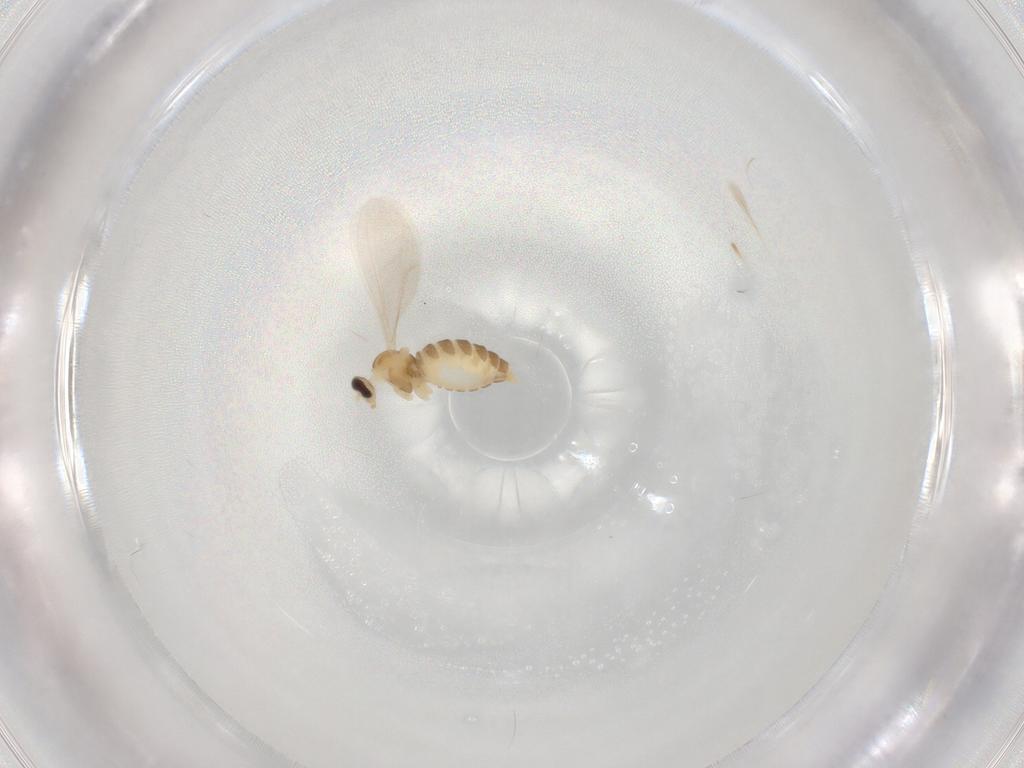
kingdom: Animalia
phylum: Arthropoda
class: Insecta
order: Diptera
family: Cecidomyiidae
